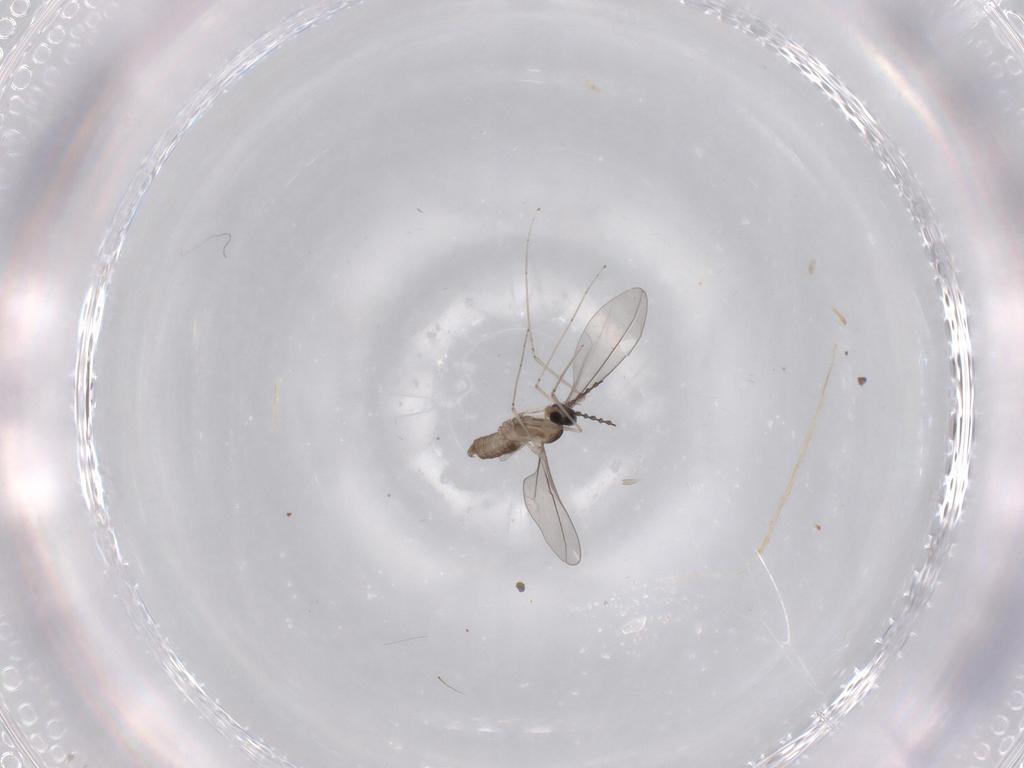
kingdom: Animalia
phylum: Arthropoda
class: Insecta
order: Diptera
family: Cecidomyiidae
